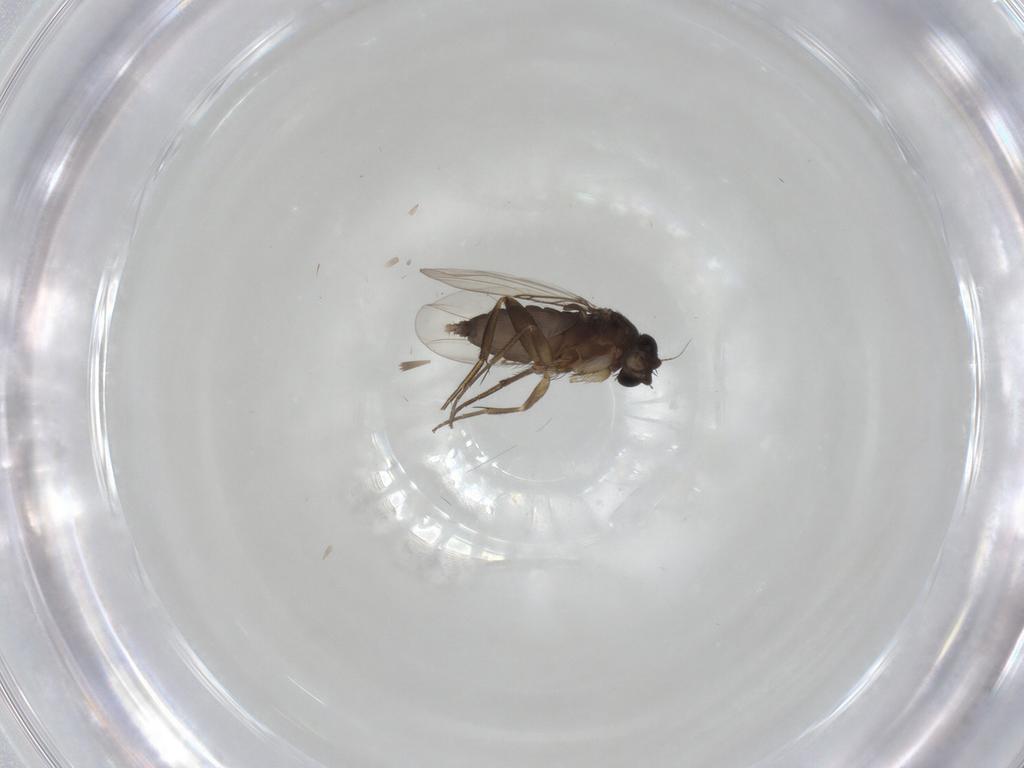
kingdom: Animalia
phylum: Arthropoda
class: Insecta
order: Diptera
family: Phoridae
